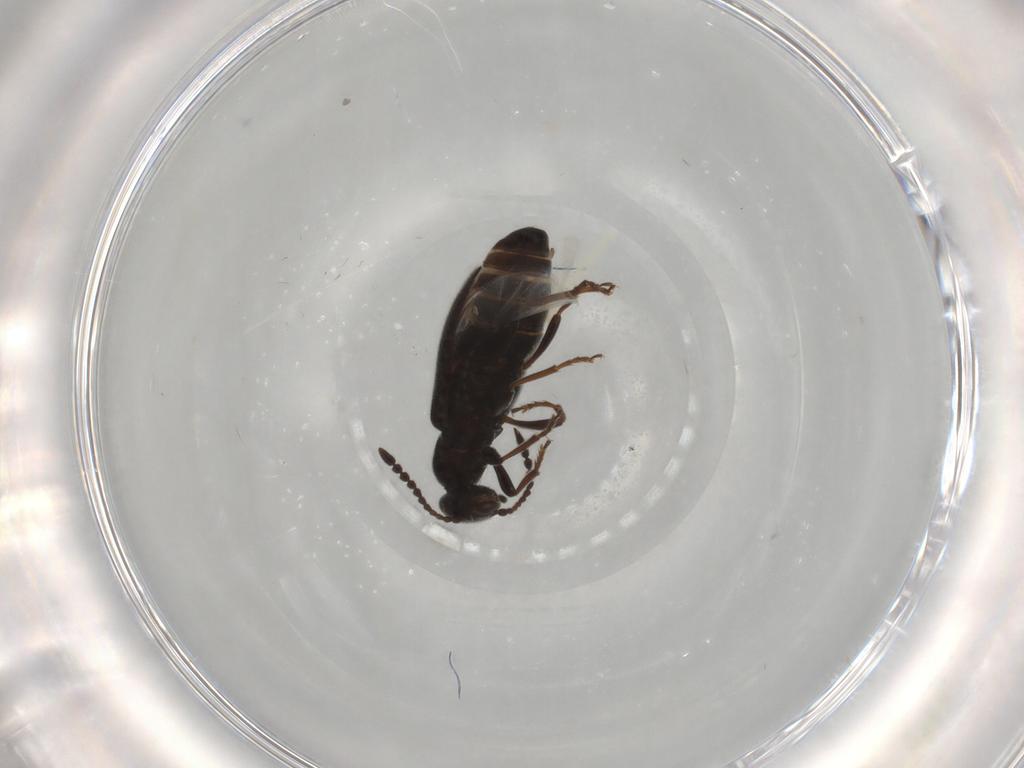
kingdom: Animalia
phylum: Arthropoda
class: Insecta
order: Coleoptera
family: Anthicidae
